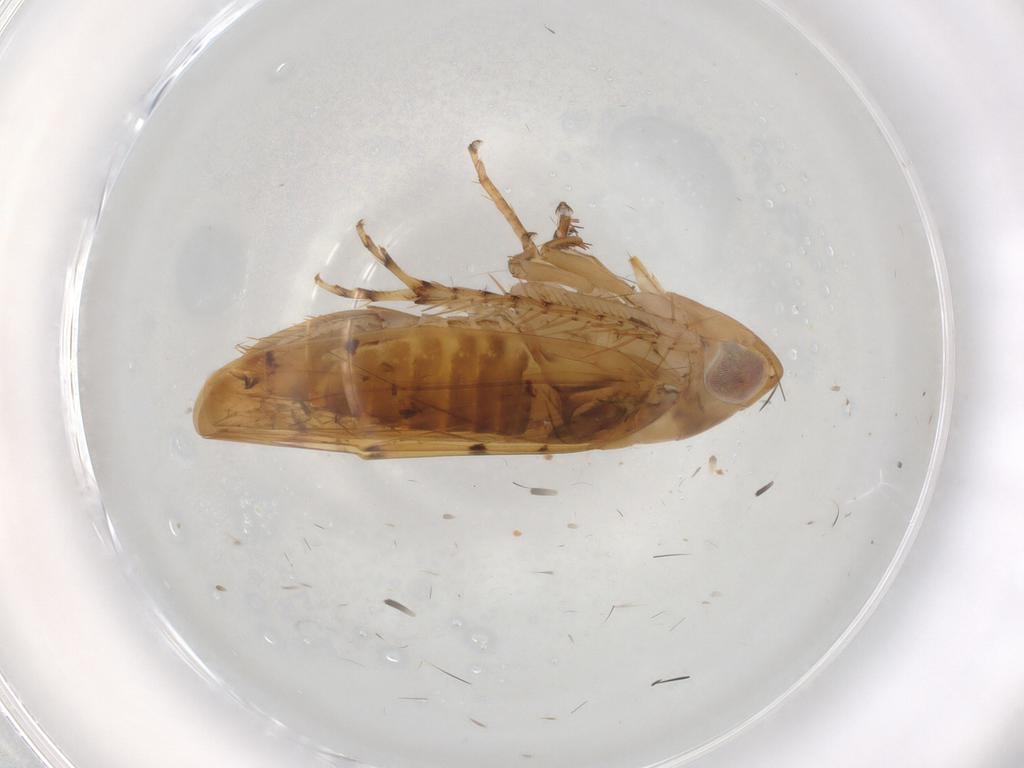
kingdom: Animalia
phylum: Arthropoda
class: Insecta
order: Hemiptera
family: Cicadellidae
